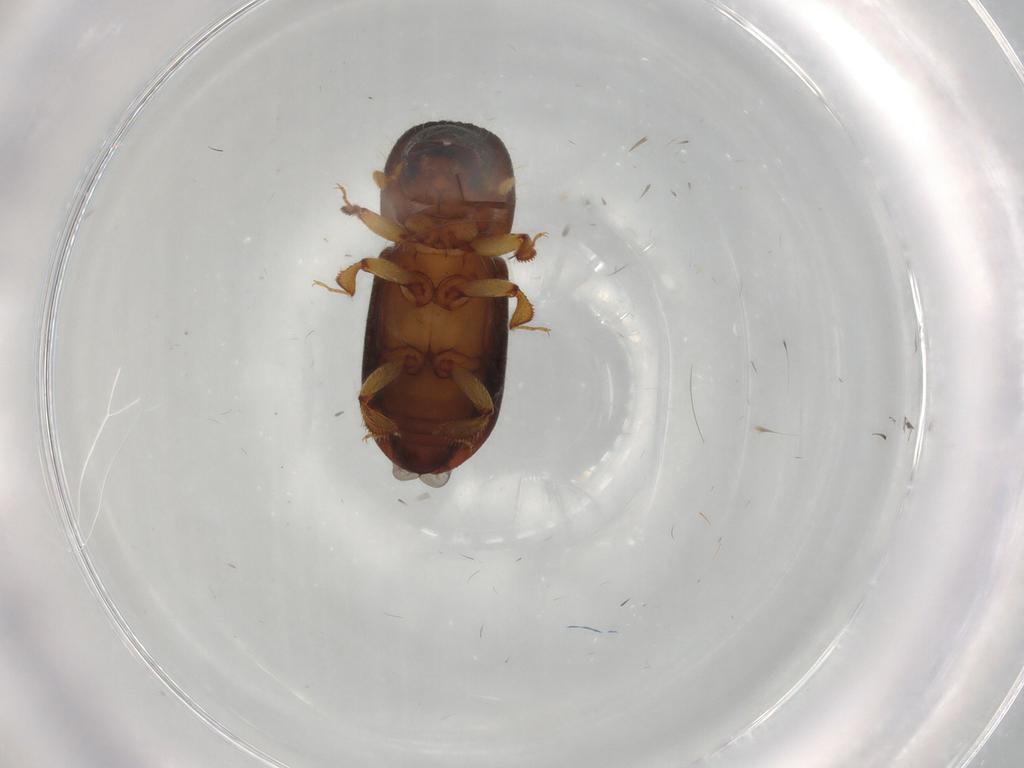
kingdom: Animalia
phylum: Arthropoda
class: Insecta
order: Coleoptera
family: Curculionidae
